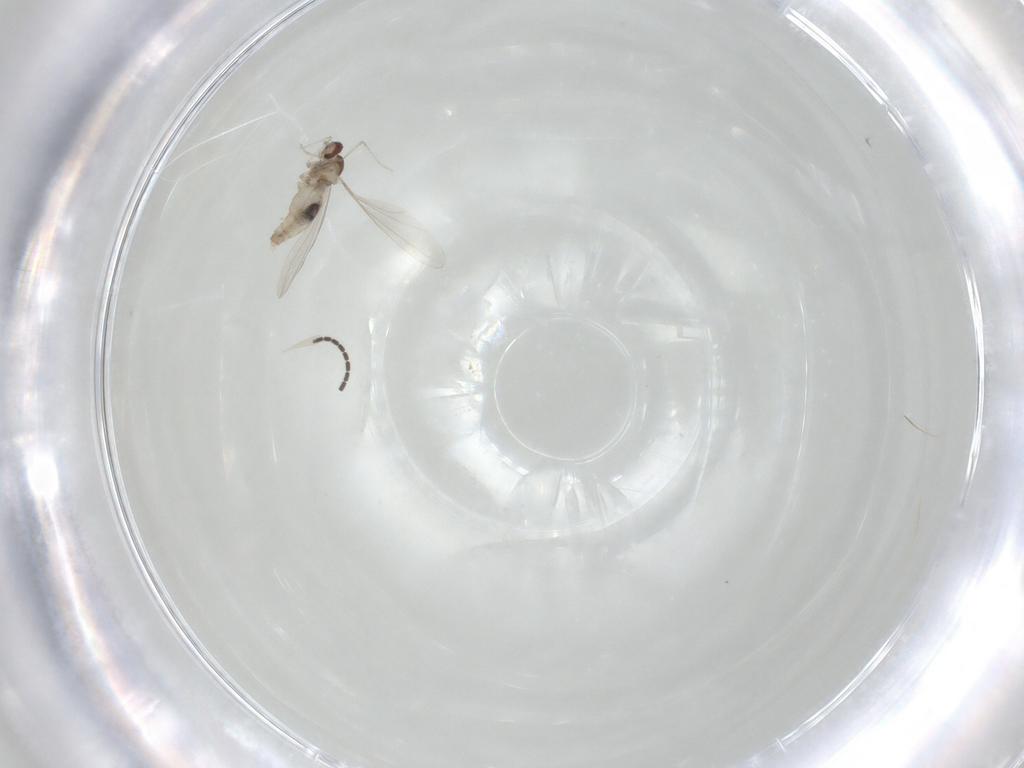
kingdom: Animalia
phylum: Arthropoda
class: Insecta
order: Diptera
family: Sciaridae
